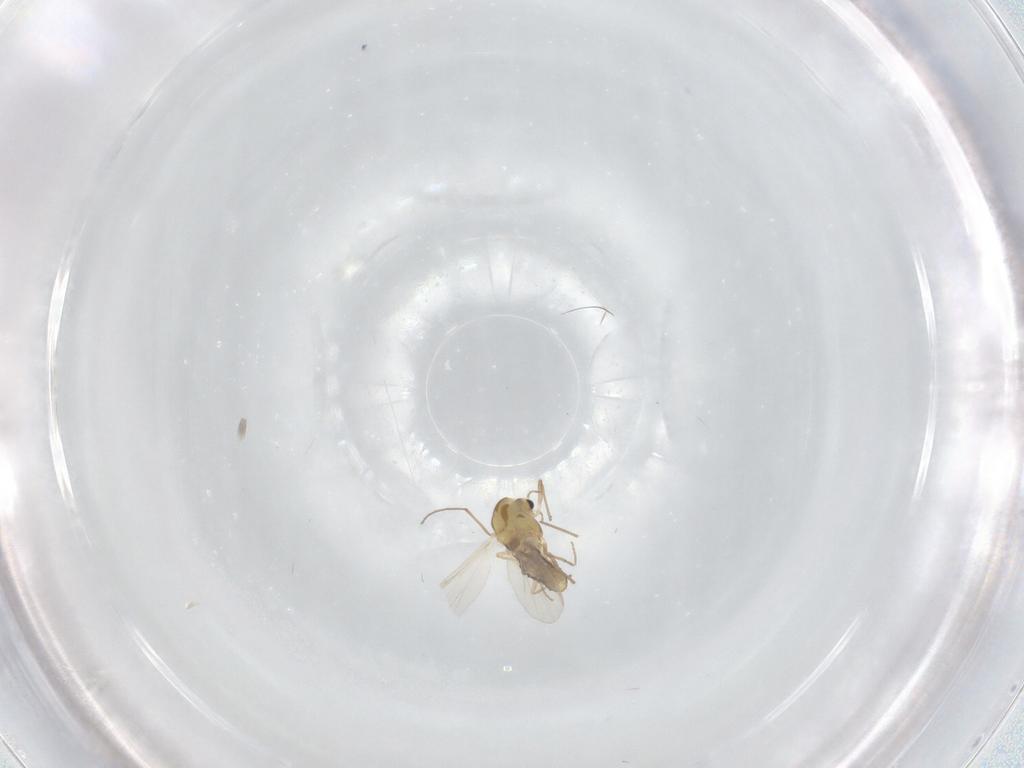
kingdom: Animalia
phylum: Arthropoda
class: Insecta
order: Diptera
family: Chironomidae
